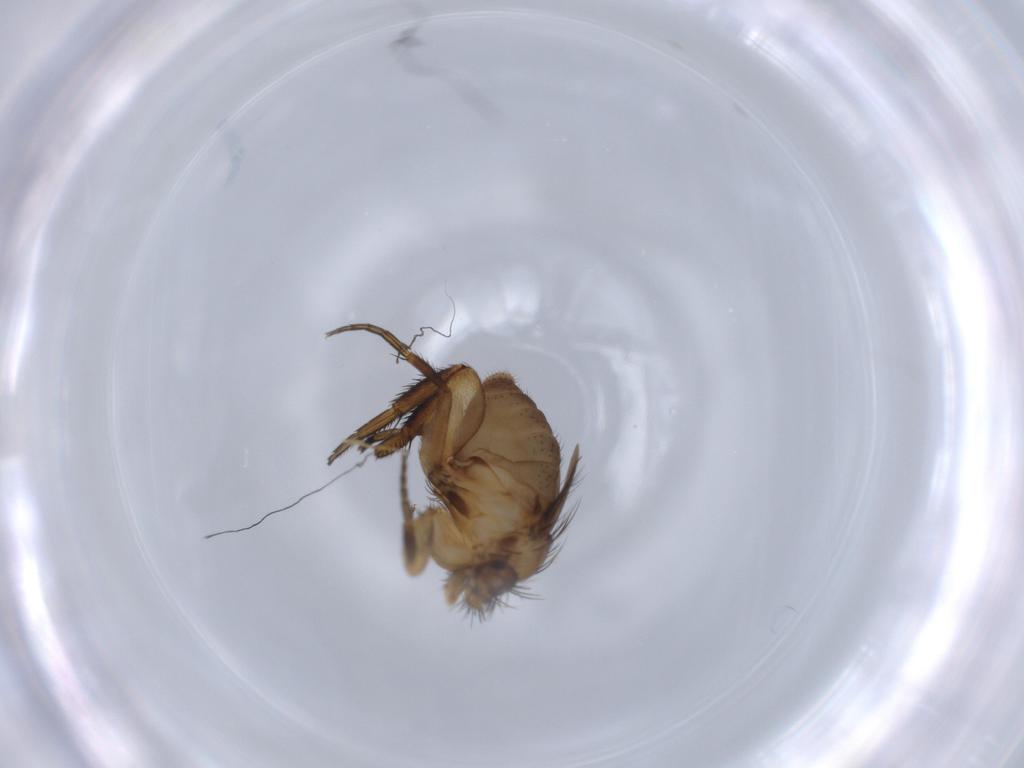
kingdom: Animalia
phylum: Arthropoda
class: Insecta
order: Diptera
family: Phoridae
